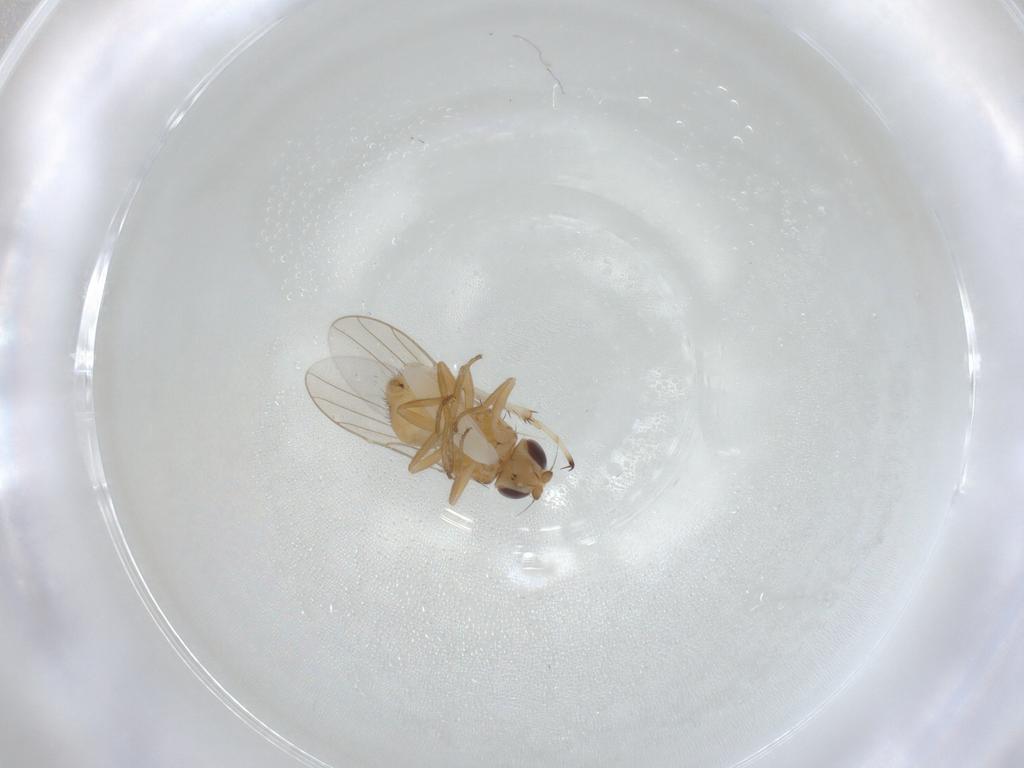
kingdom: Animalia
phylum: Arthropoda
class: Insecta
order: Diptera
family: Chloropidae
